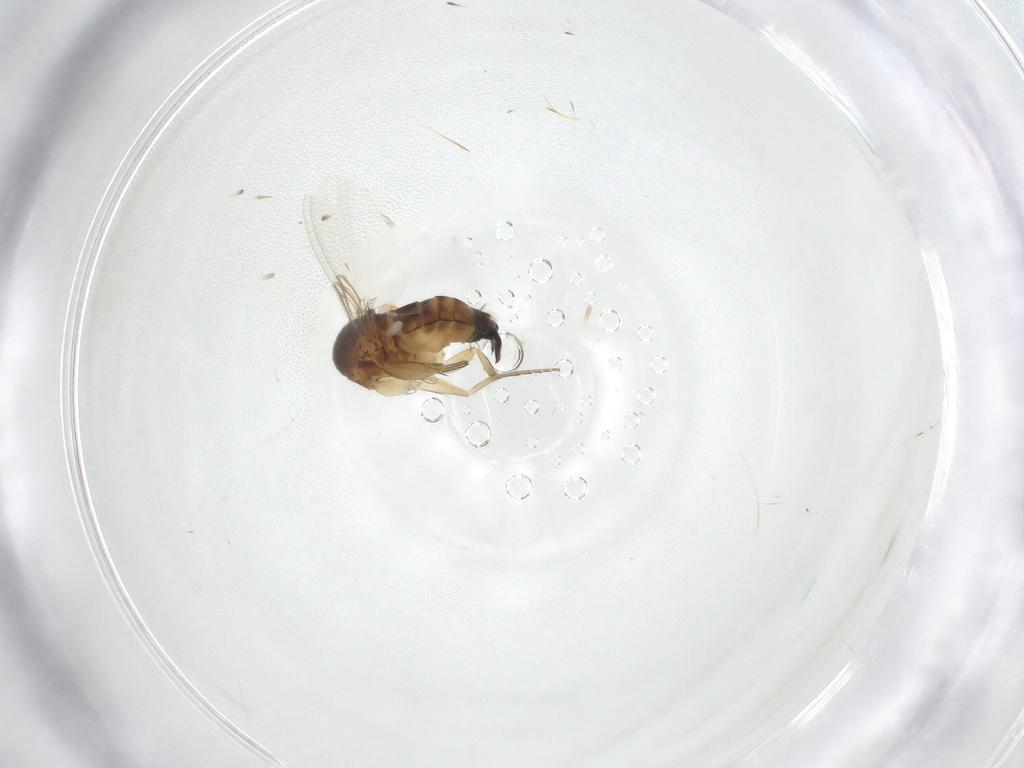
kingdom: Animalia
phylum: Arthropoda
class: Insecta
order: Diptera
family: Phoridae
